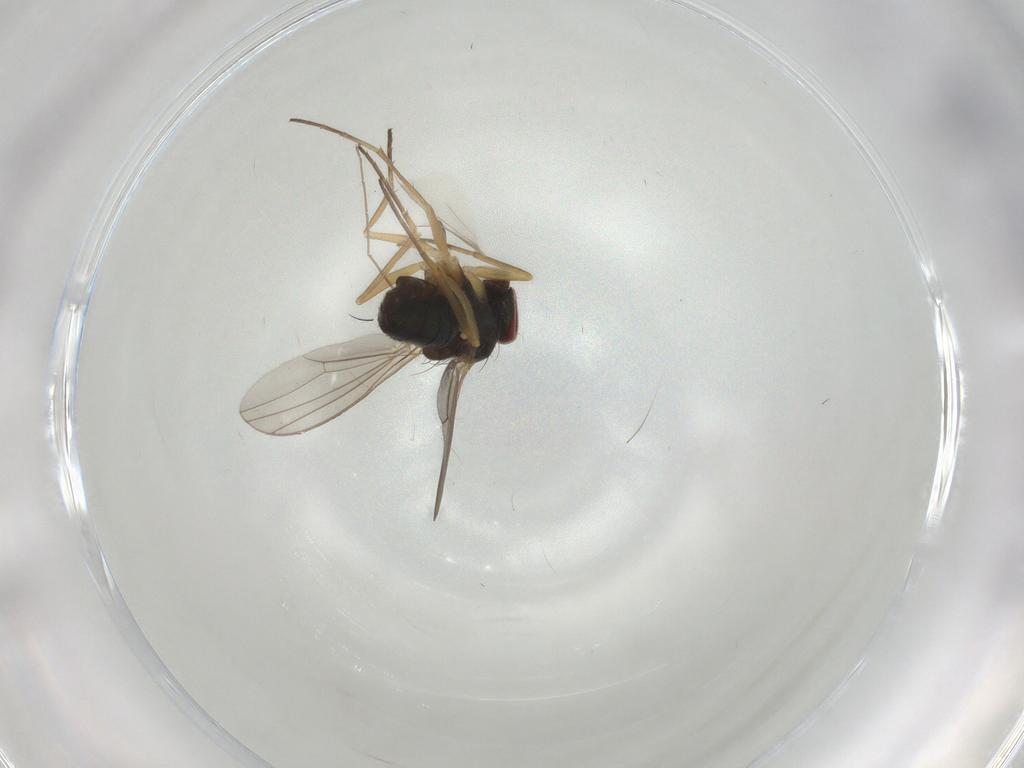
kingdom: Animalia
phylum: Arthropoda
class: Insecta
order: Diptera
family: Dolichopodidae
